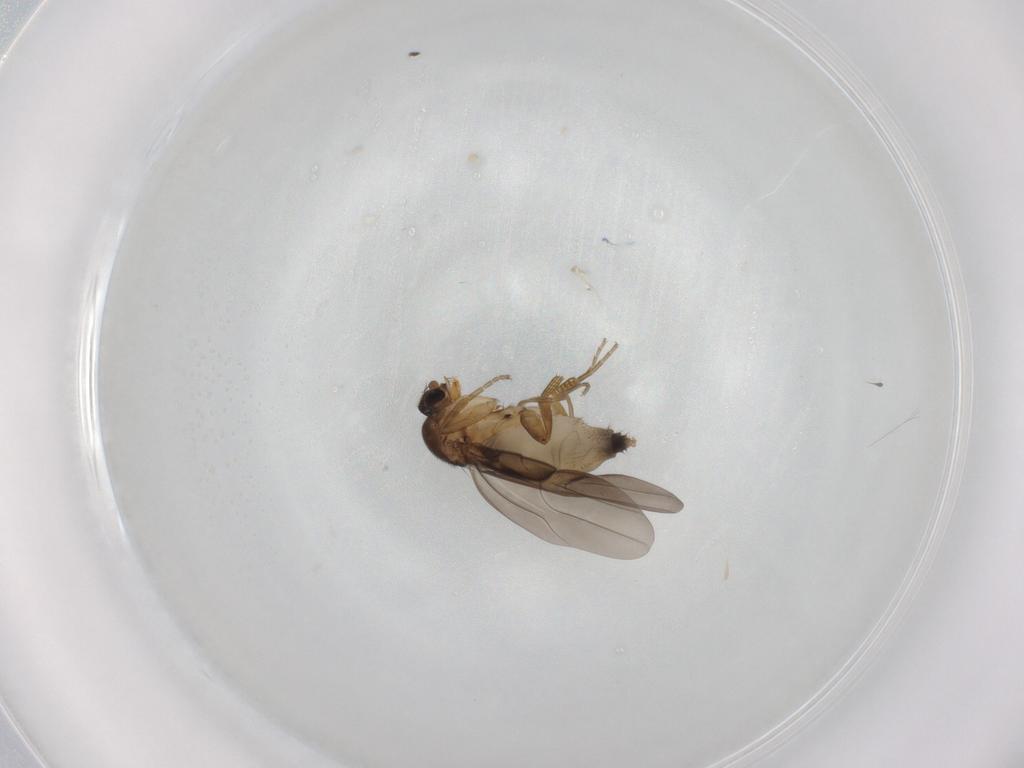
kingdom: Animalia
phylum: Arthropoda
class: Insecta
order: Diptera
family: Phoridae
